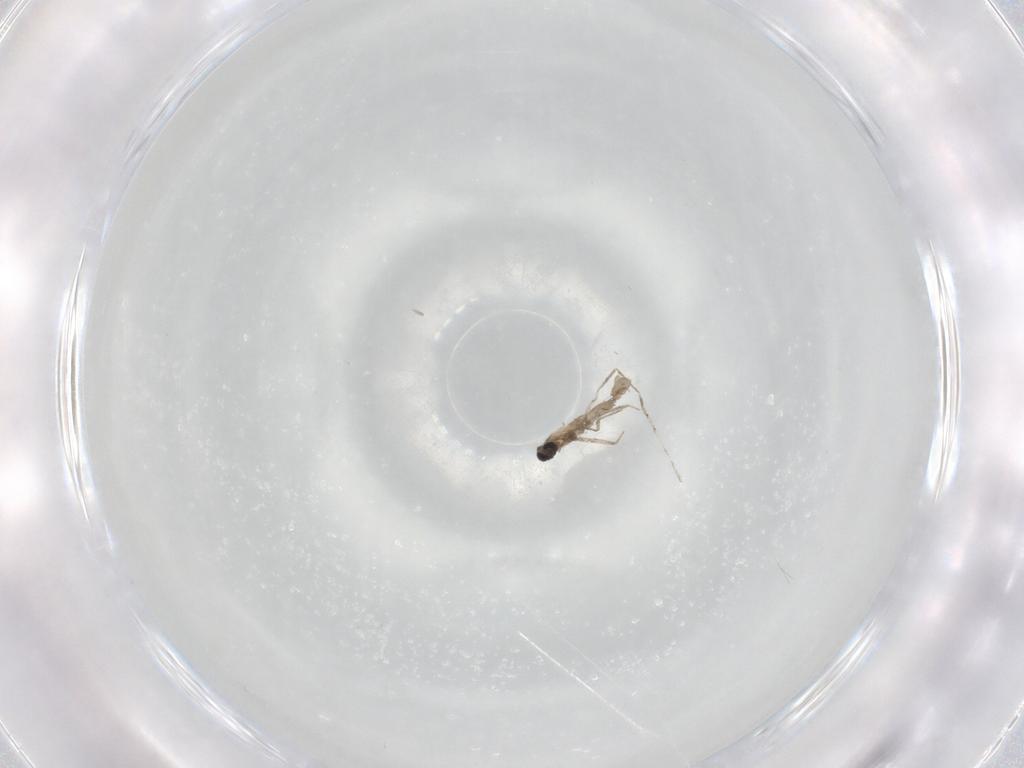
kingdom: Animalia
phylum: Arthropoda
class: Insecta
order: Diptera
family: Cecidomyiidae
